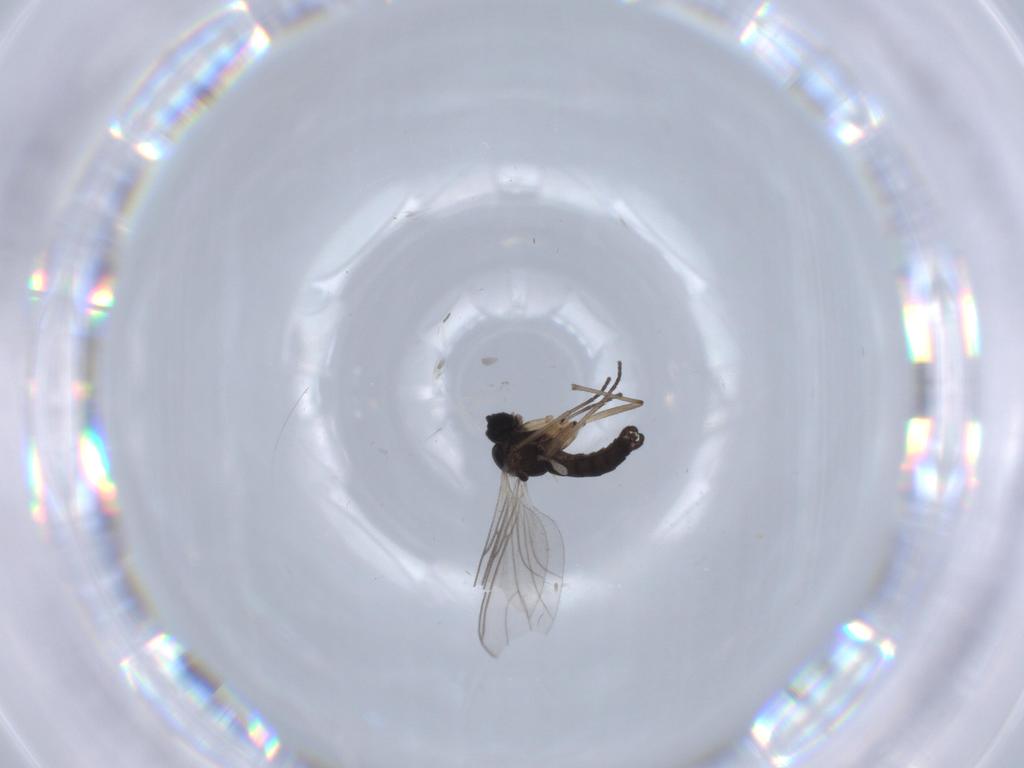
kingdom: Animalia
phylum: Arthropoda
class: Insecta
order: Diptera
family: Sciaridae
